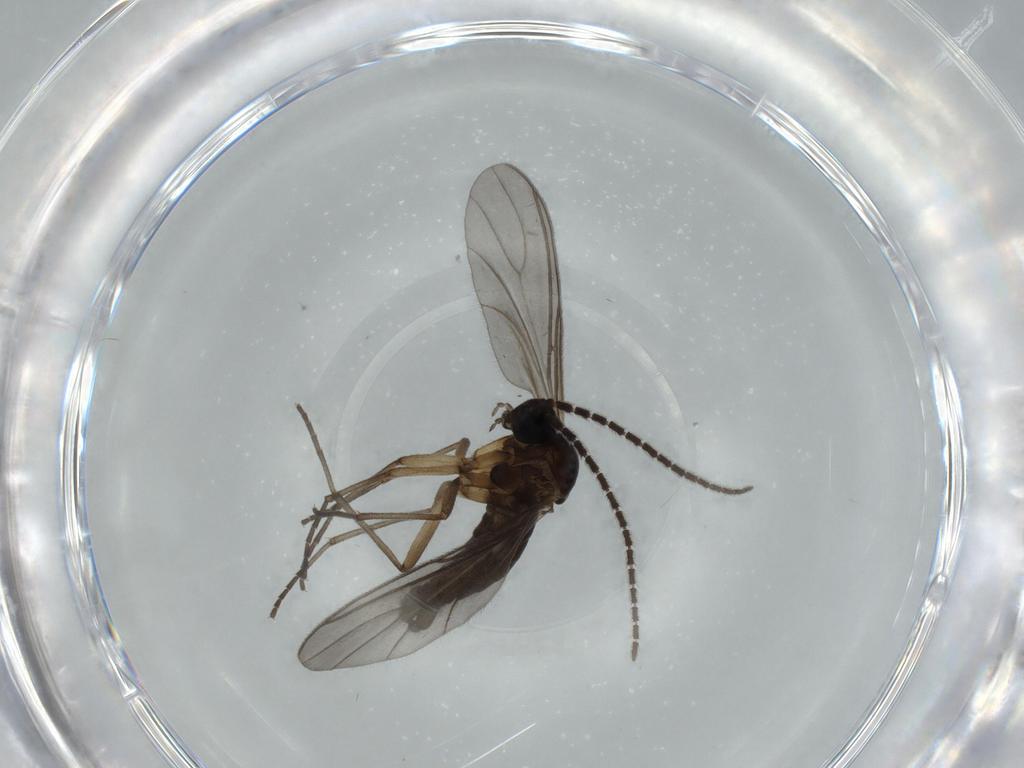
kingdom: Animalia
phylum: Arthropoda
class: Insecta
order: Diptera
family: Sciaridae
